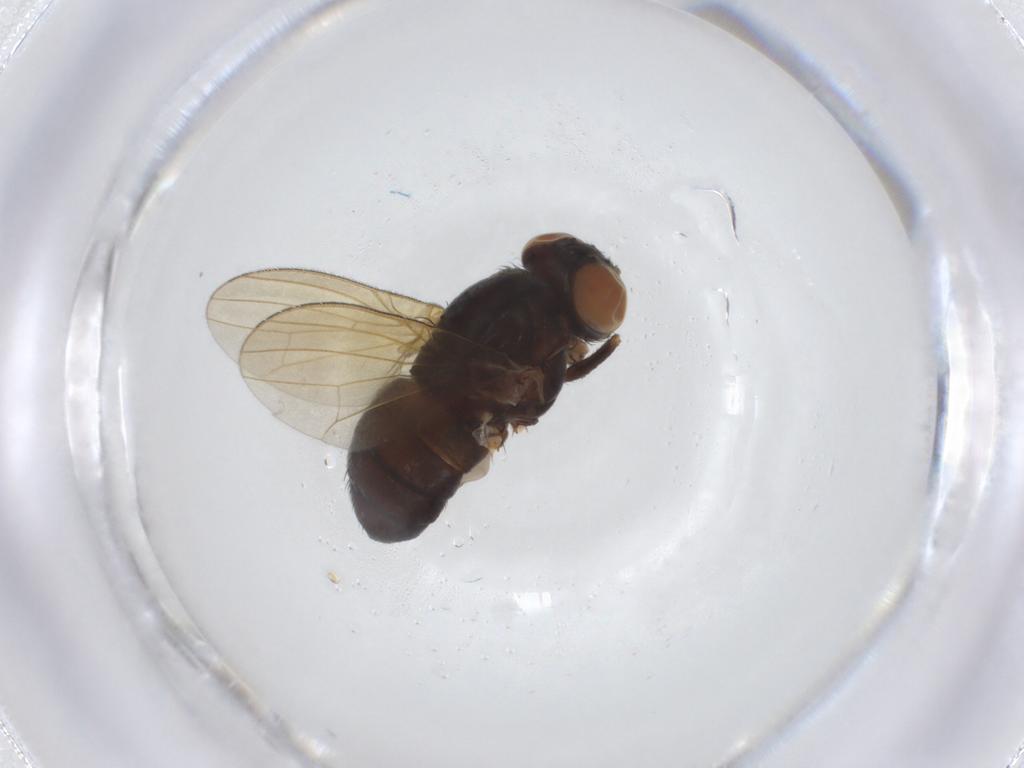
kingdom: Animalia
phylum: Arthropoda
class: Insecta
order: Diptera
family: Lauxaniidae
